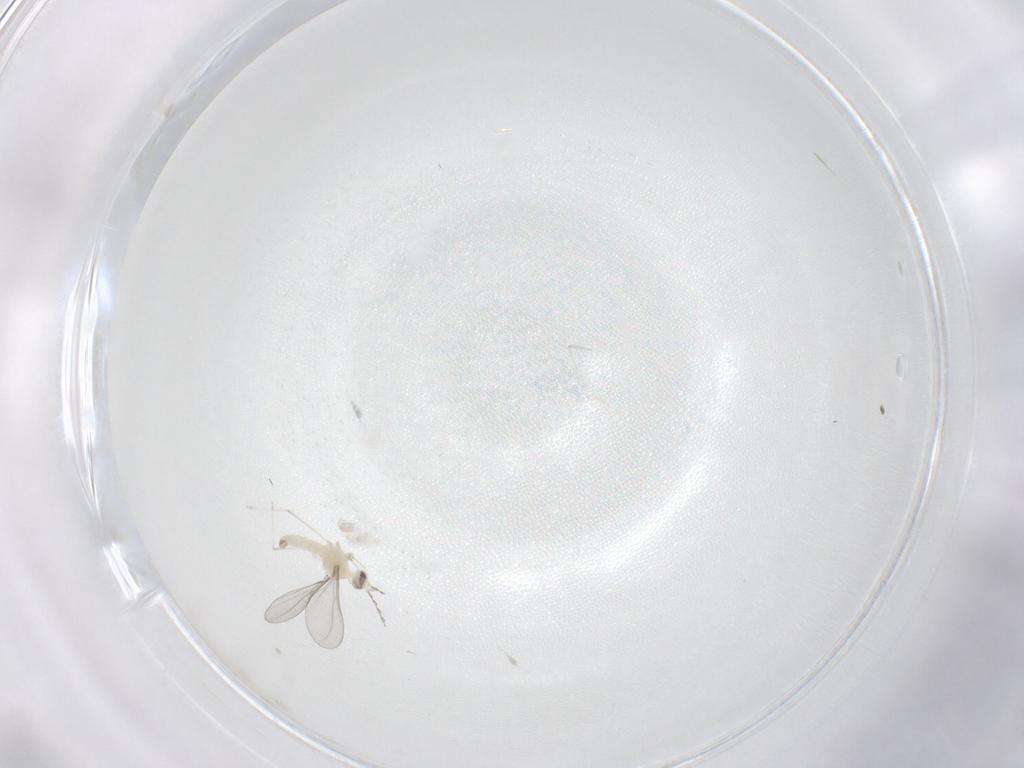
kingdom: Animalia
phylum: Arthropoda
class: Insecta
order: Diptera
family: Cecidomyiidae
